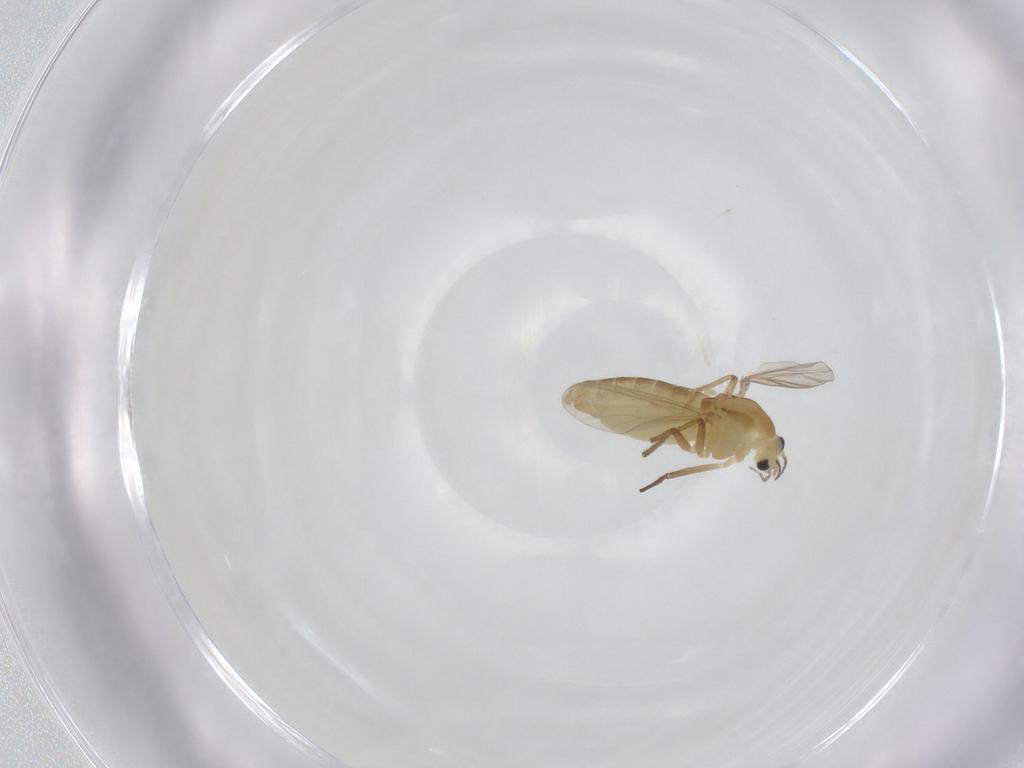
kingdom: Animalia
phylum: Arthropoda
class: Insecta
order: Diptera
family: Chironomidae
